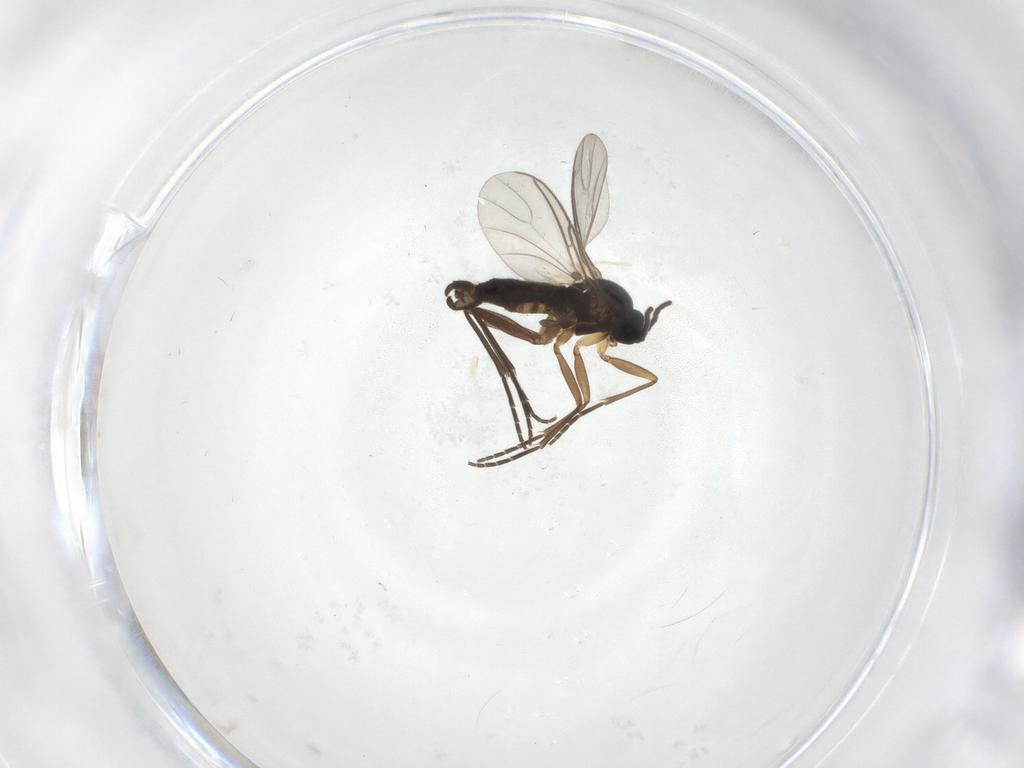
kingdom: Animalia
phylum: Arthropoda
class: Insecta
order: Diptera
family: Sciaridae
